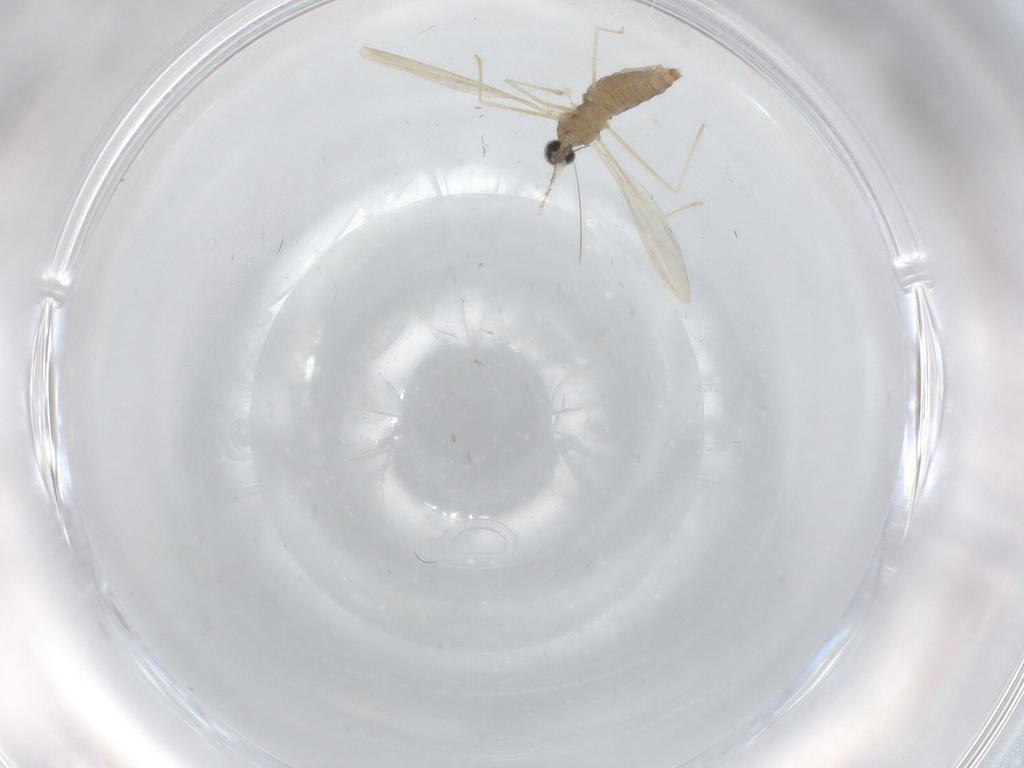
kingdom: Animalia
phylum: Arthropoda
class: Insecta
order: Diptera
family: Cecidomyiidae
